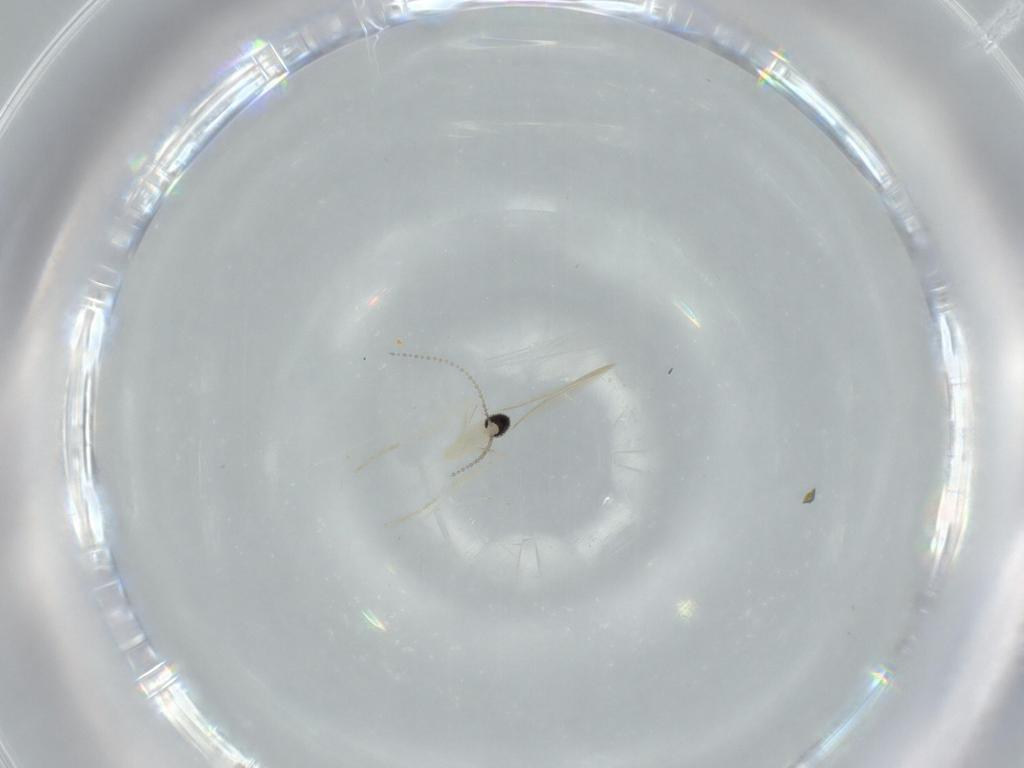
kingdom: Animalia
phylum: Arthropoda
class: Insecta
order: Diptera
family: Cecidomyiidae
